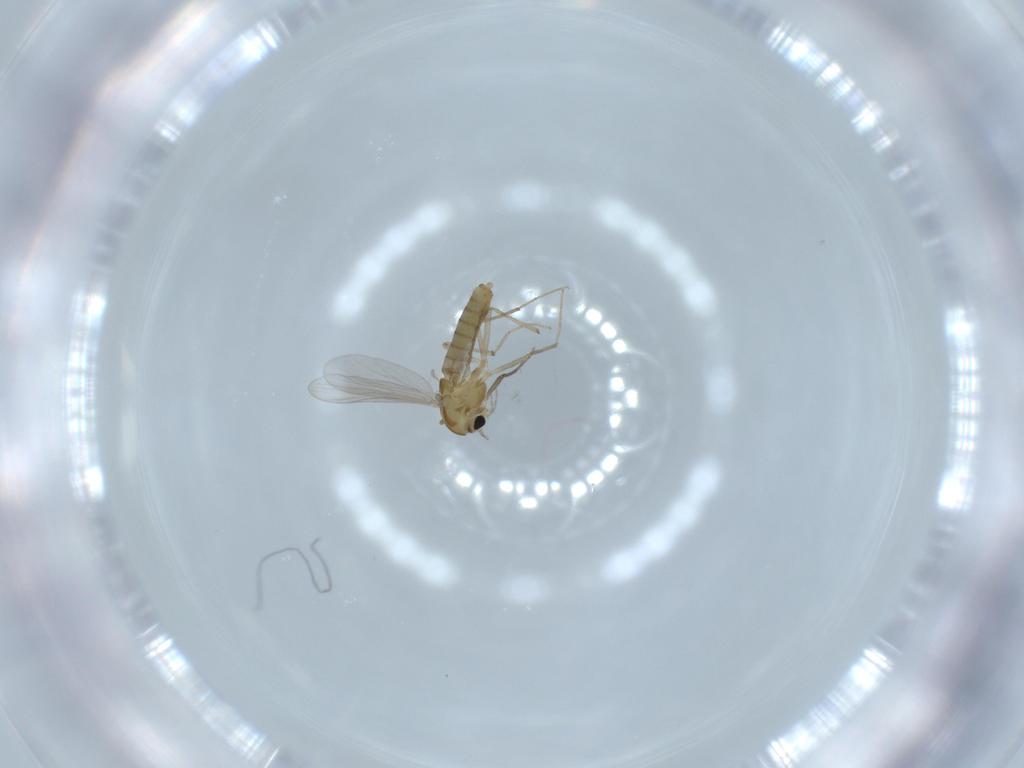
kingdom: Animalia
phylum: Arthropoda
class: Insecta
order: Diptera
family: Chironomidae
